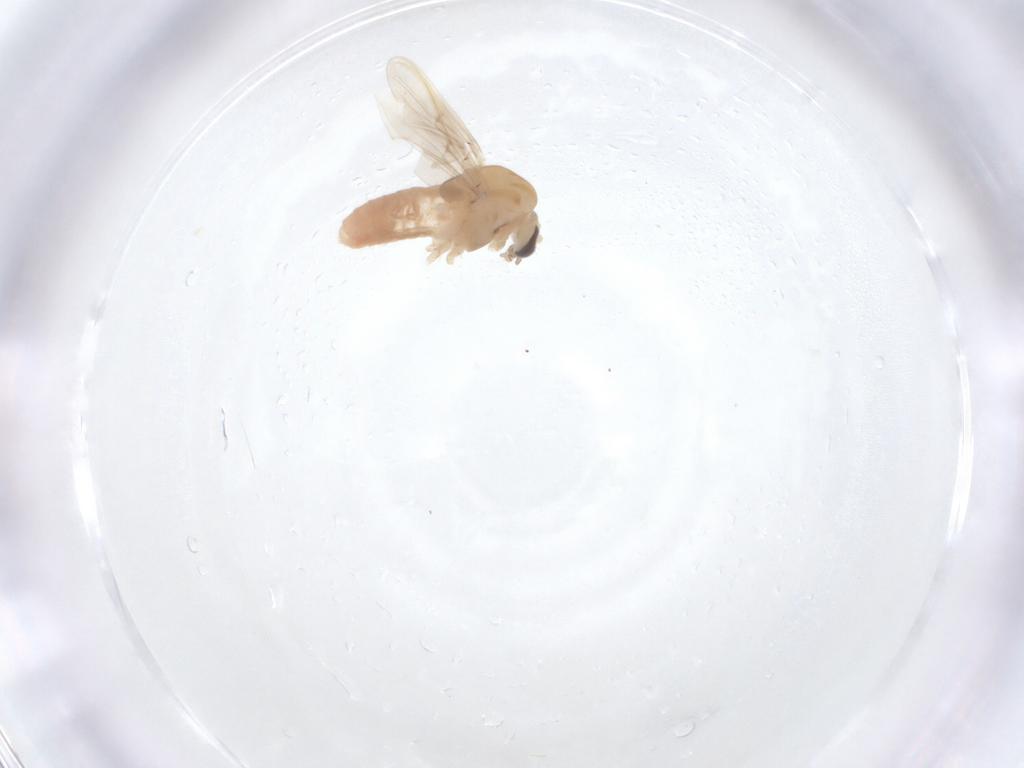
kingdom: Animalia
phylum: Arthropoda
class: Insecta
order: Diptera
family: Chironomidae
